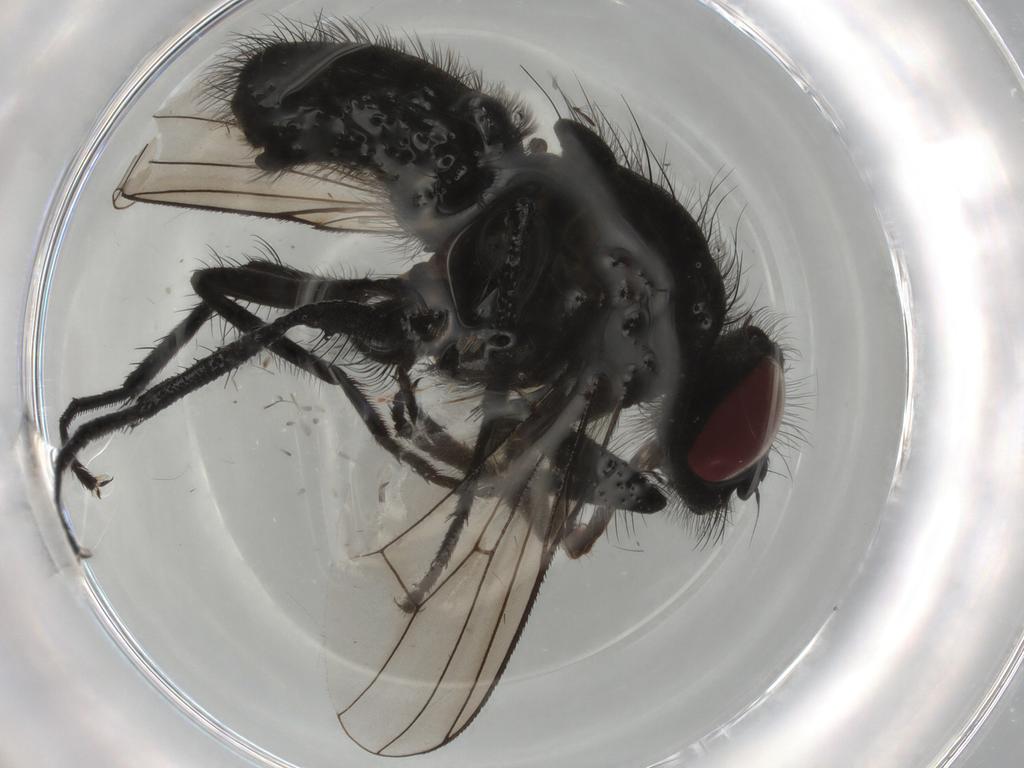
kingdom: Animalia
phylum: Arthropoda
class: Insecta
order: Diptera
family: Muscidae
